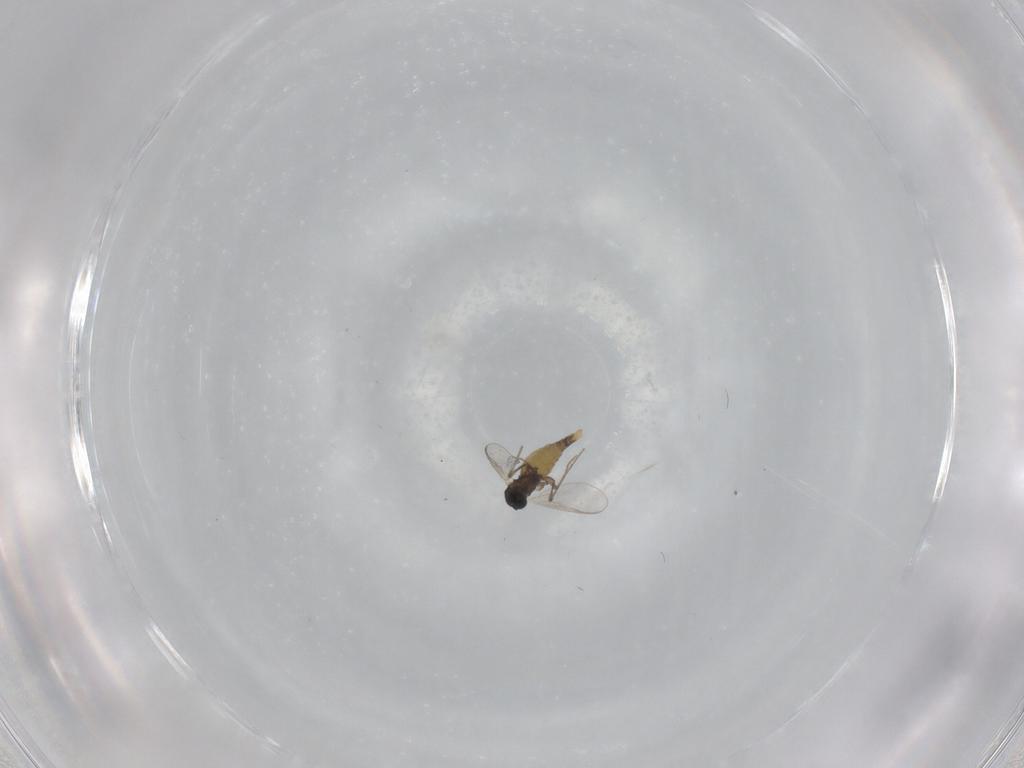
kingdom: Animalia
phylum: Arthropoda
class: Insecta
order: Diptera
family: Chironomidae
